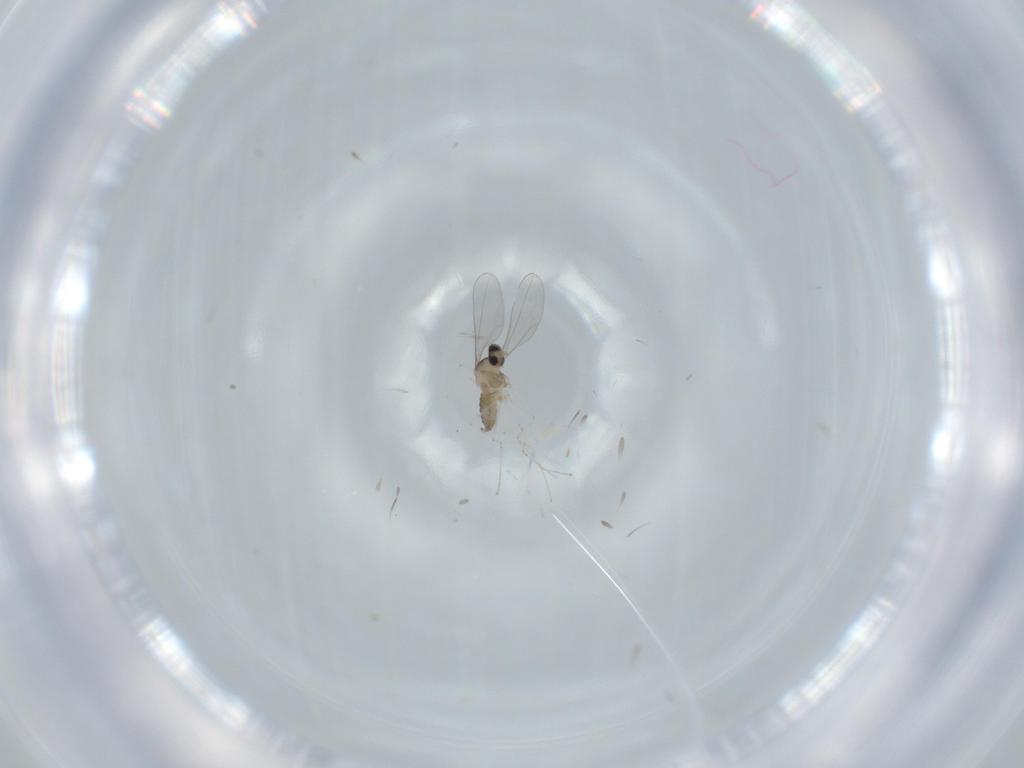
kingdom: Animalia
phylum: Arthropoda
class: Insecta
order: Diptera
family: Cecidomyiidae
